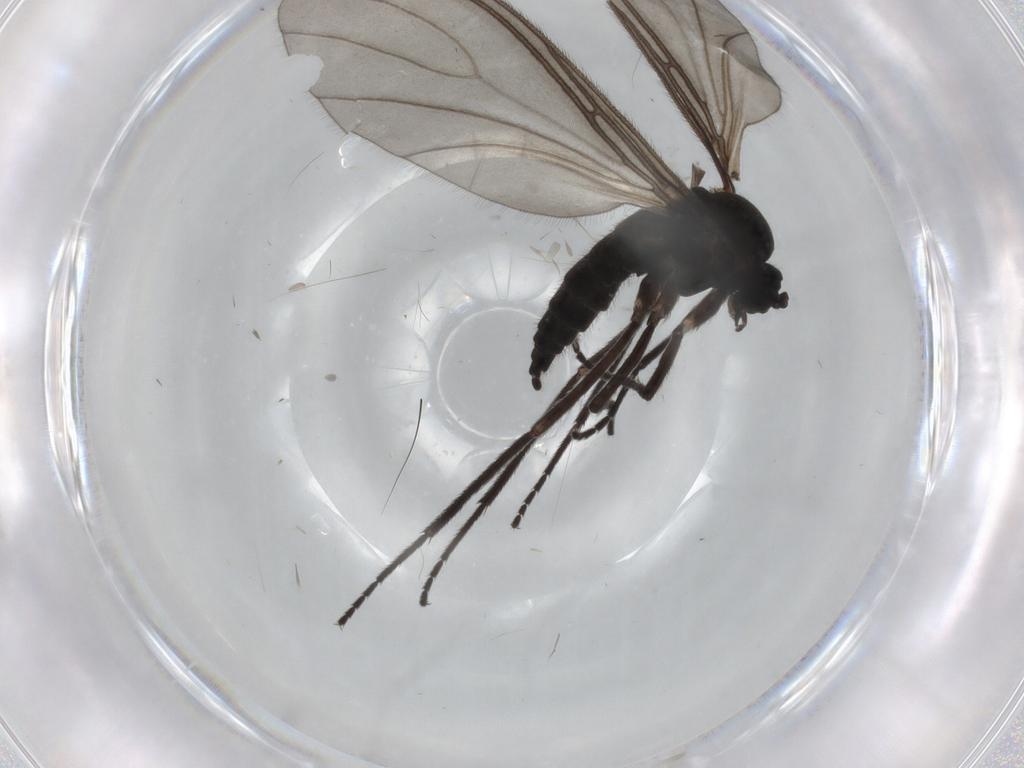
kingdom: Animalia
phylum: Arthropoda
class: Insecta
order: Diptera
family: Sciaridae
